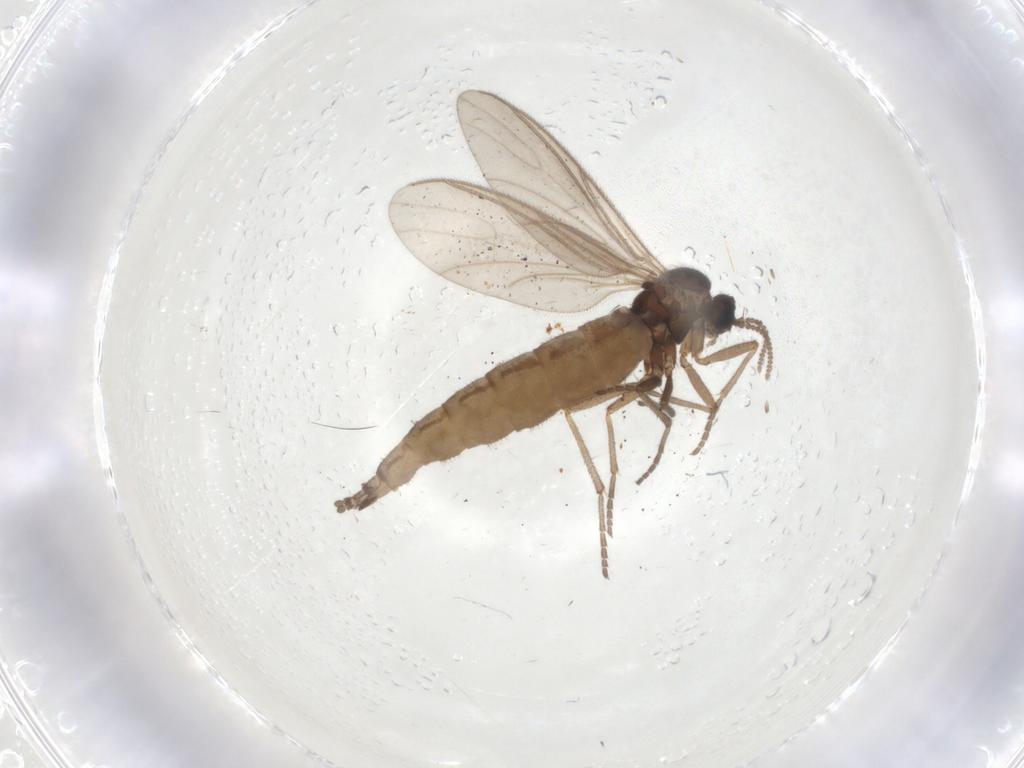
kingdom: Animalia
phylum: Arthropoda
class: Insecta
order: Diptera
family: Sciaridae
